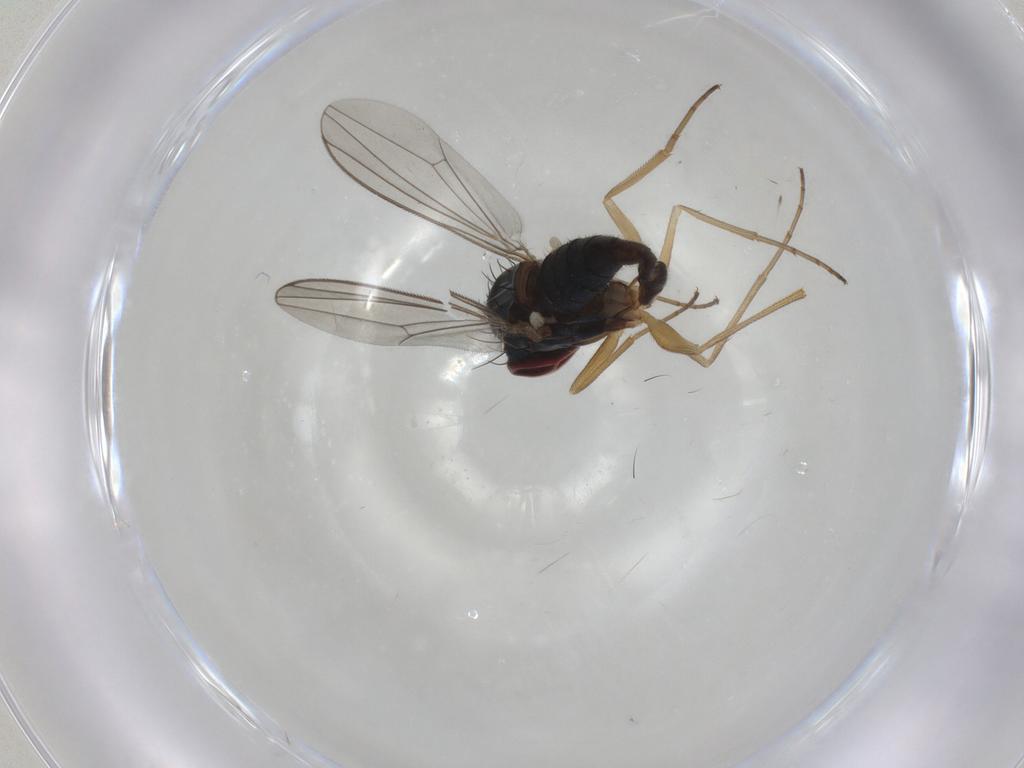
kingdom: Animalia
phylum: Arthropoda
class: Insecta
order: Diptera
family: Dolichopodidae
